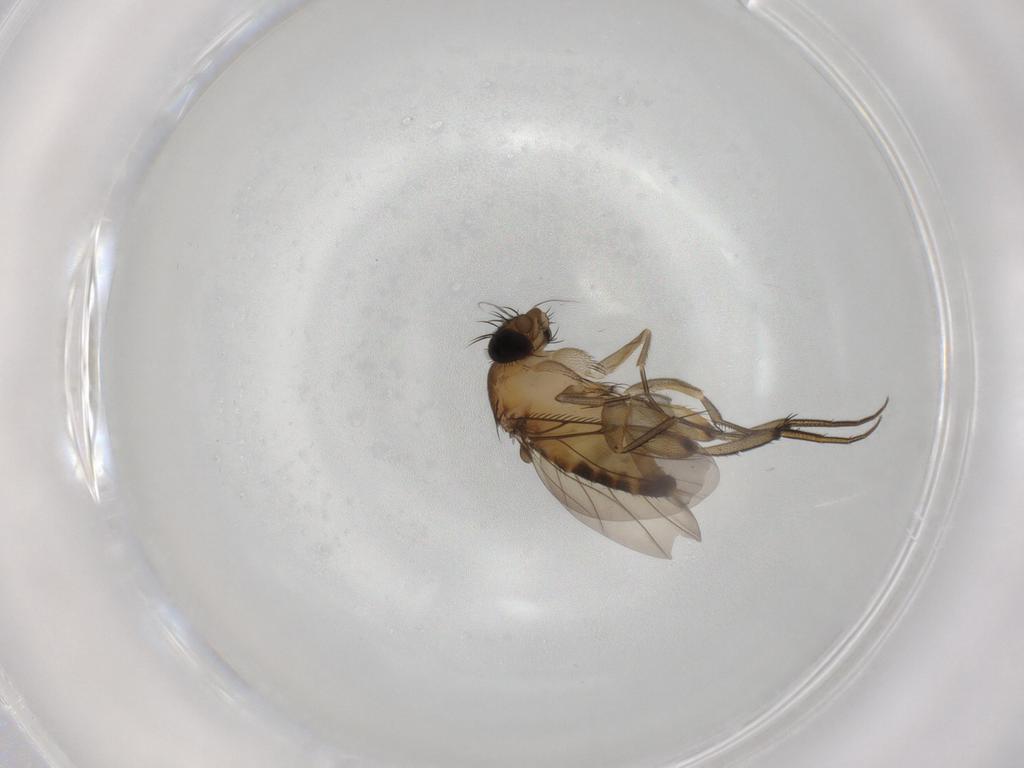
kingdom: Animalia
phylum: Arthropoda
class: Insecta
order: Diptera
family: Phoridae
